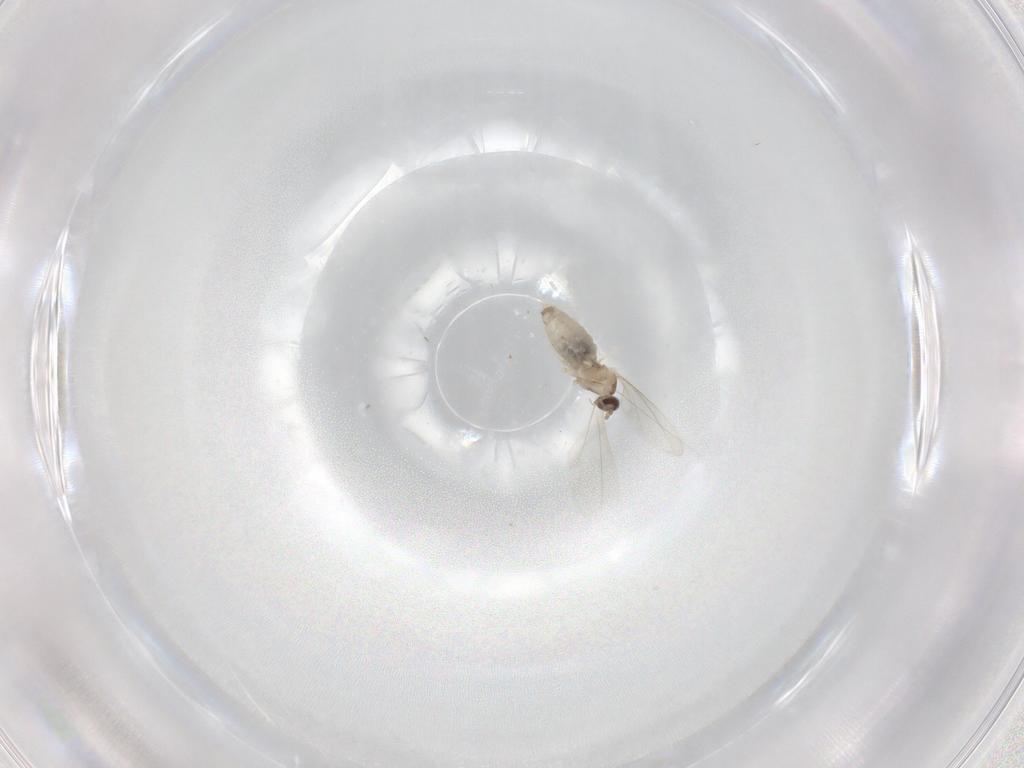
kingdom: Animalia
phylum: Arthropoda
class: Insecta
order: Diptera
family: Cecidomyiidae
